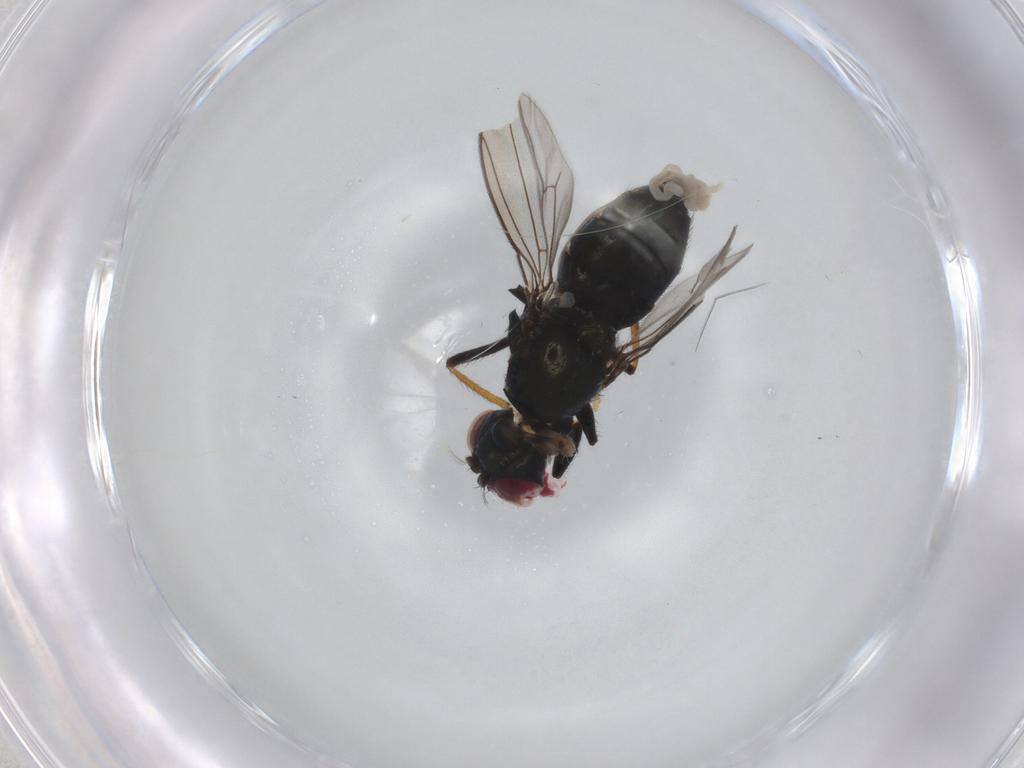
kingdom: Animalia
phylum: Arthropoda
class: Insecta
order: Diptera
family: Ephydridae
